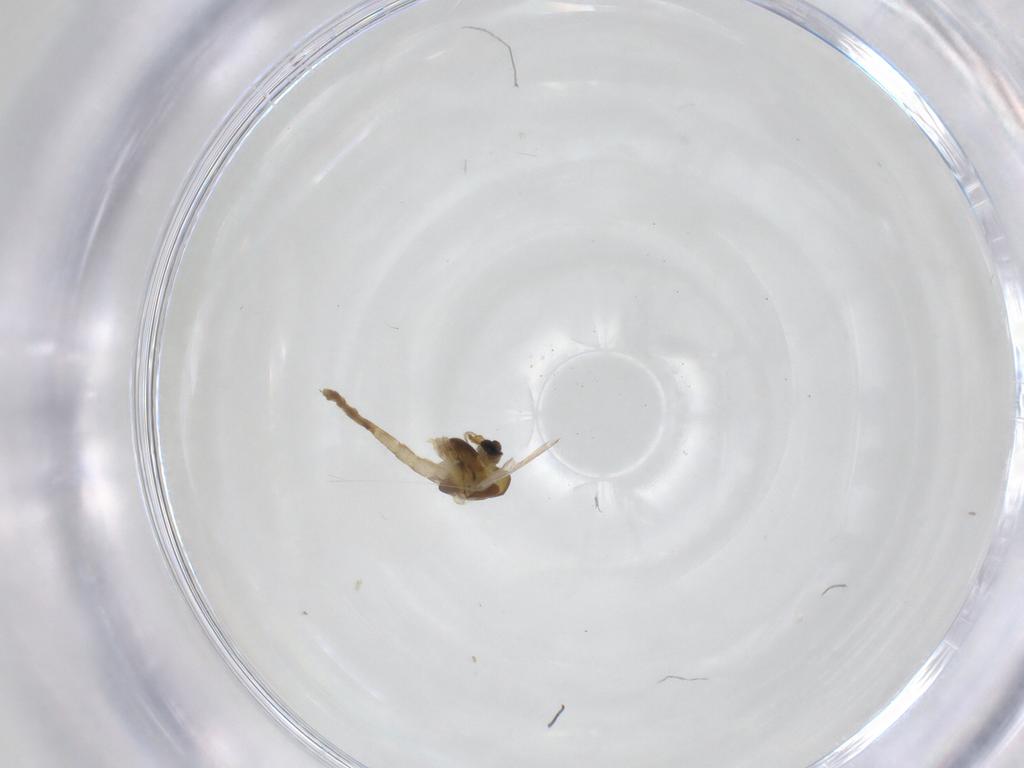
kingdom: Animalia
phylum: Arthropoda
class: Insecta
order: Diptera
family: Chironomidae
